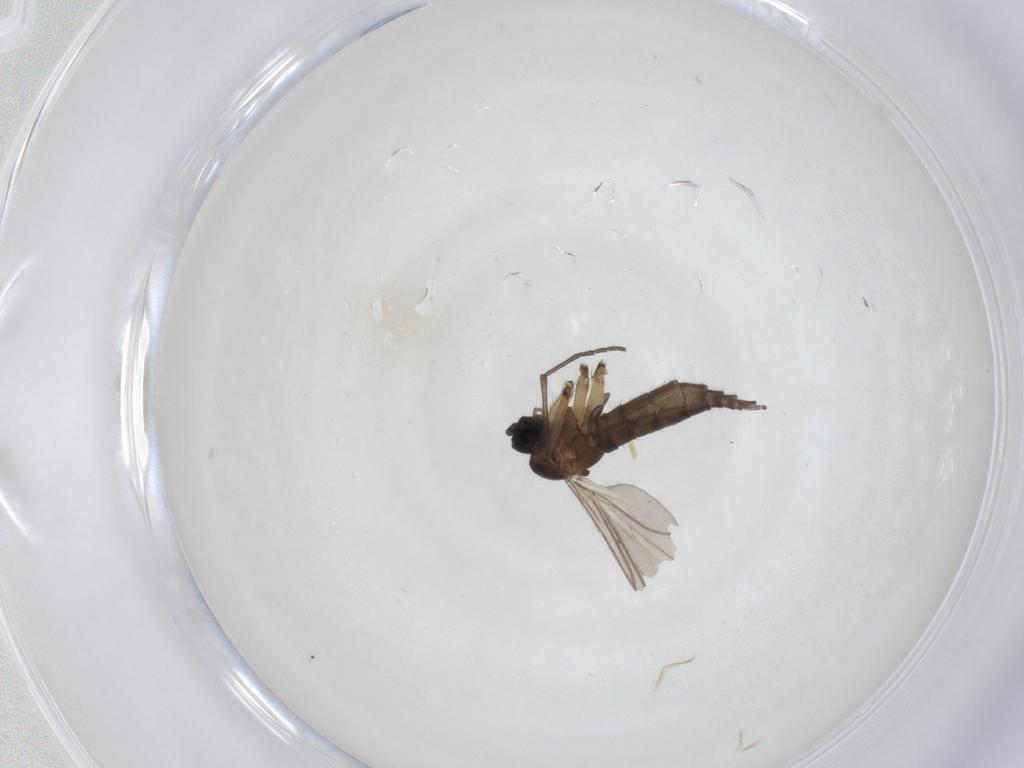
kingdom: Animalia
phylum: Arthropoda
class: Insecta
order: Diptera
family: Sciaridae
